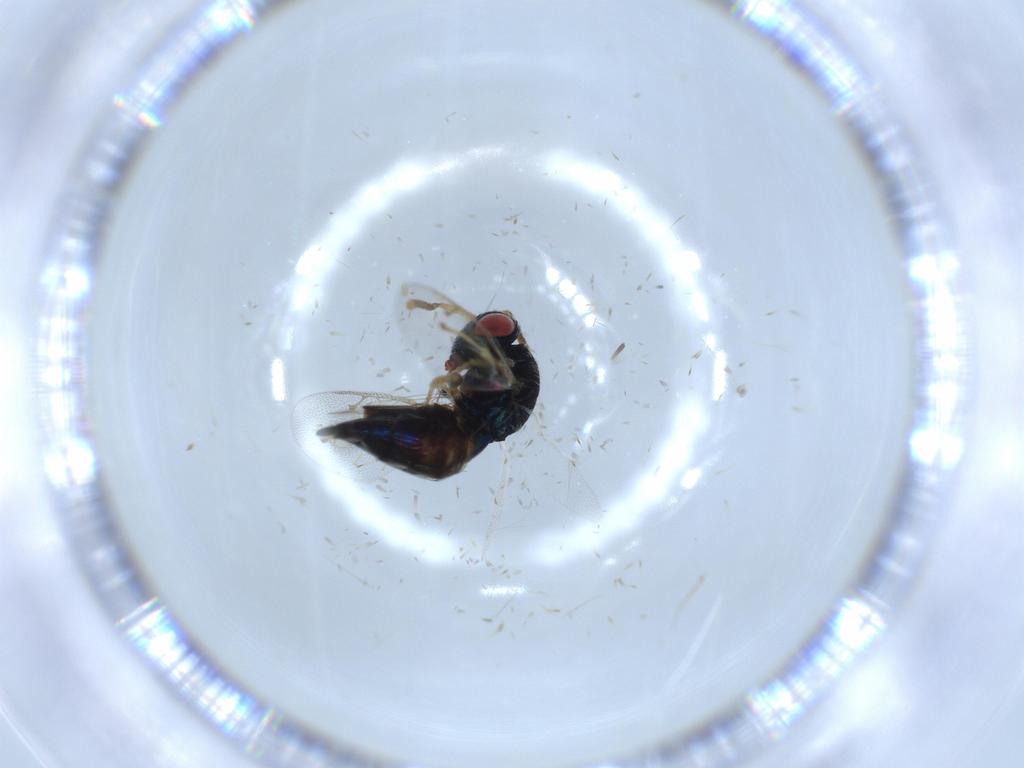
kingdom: Animalia
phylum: Arthropoda
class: Insecta
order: Hymenoptera
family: Pteromalidae
